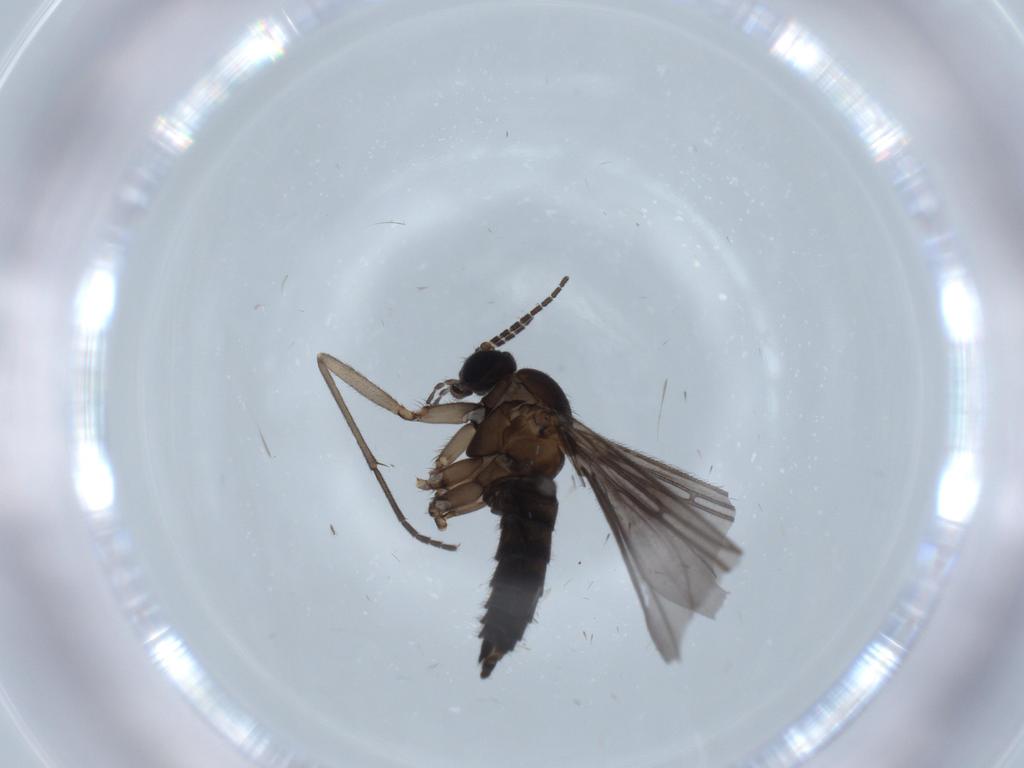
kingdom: Animalia
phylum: Arthropoda
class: Insecta
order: Diptera
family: Sciaridae
